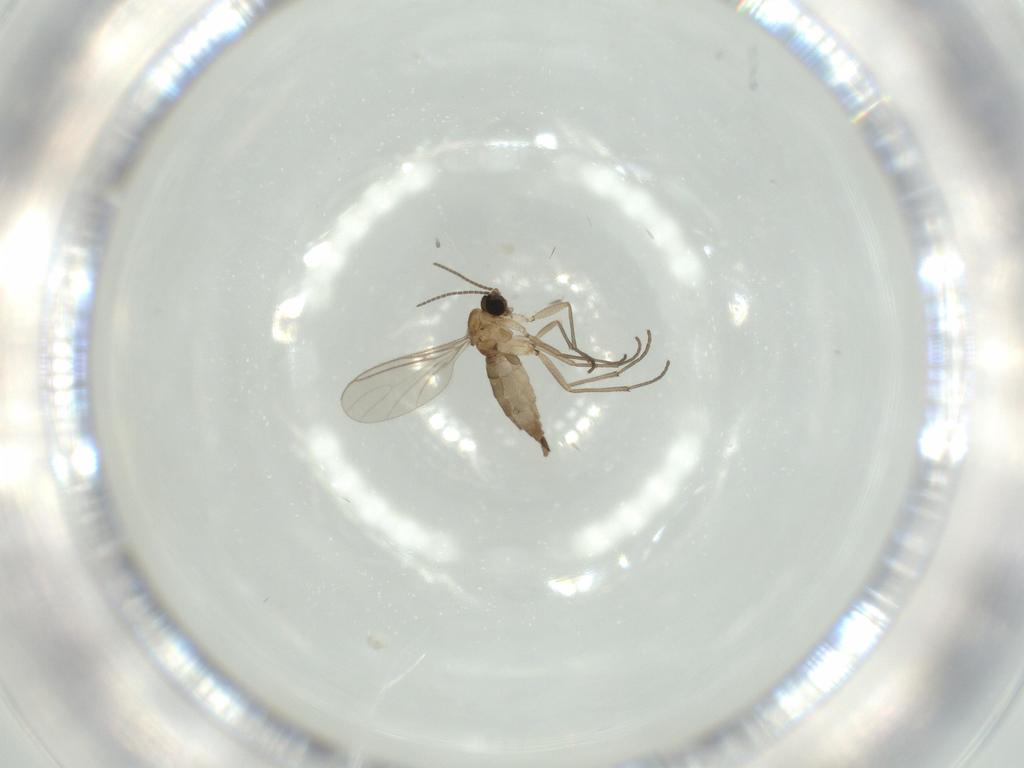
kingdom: Animalia
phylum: Arthropoda
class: Insecta
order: Diptera
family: Sciaridae
